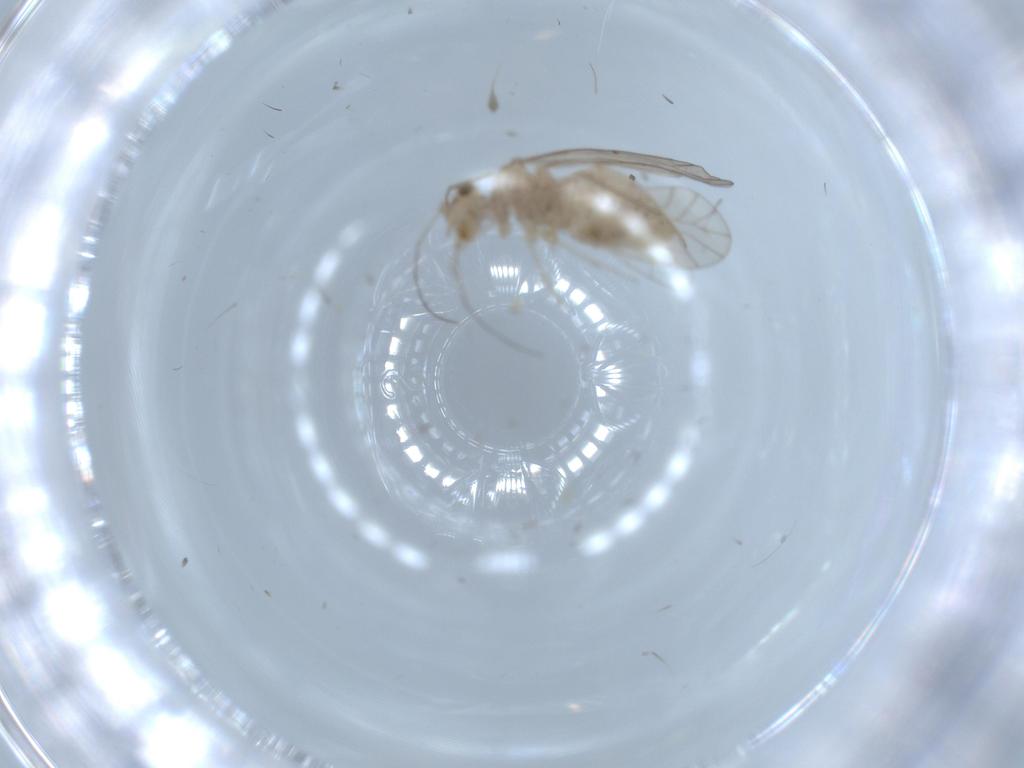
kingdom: Animalia
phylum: Arthropoda
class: Insecta
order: Psocodea
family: Lachesillidae
